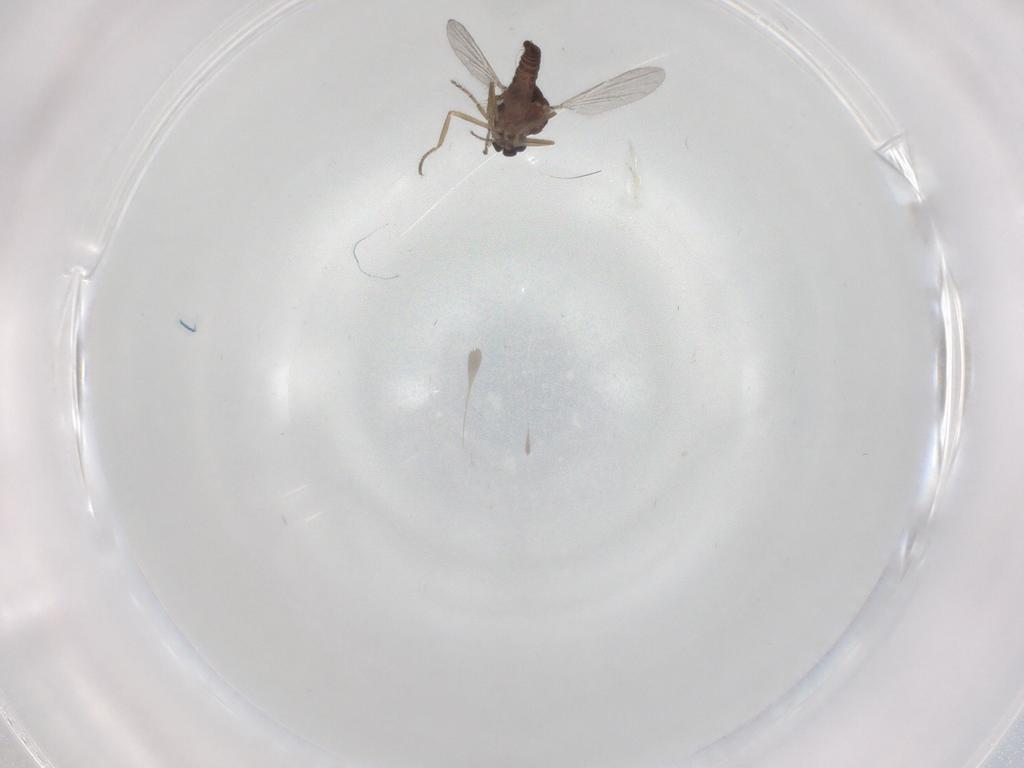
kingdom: Animalia
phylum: Arthropoda
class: Insecta
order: Diptera
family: Ceratopogonidae
